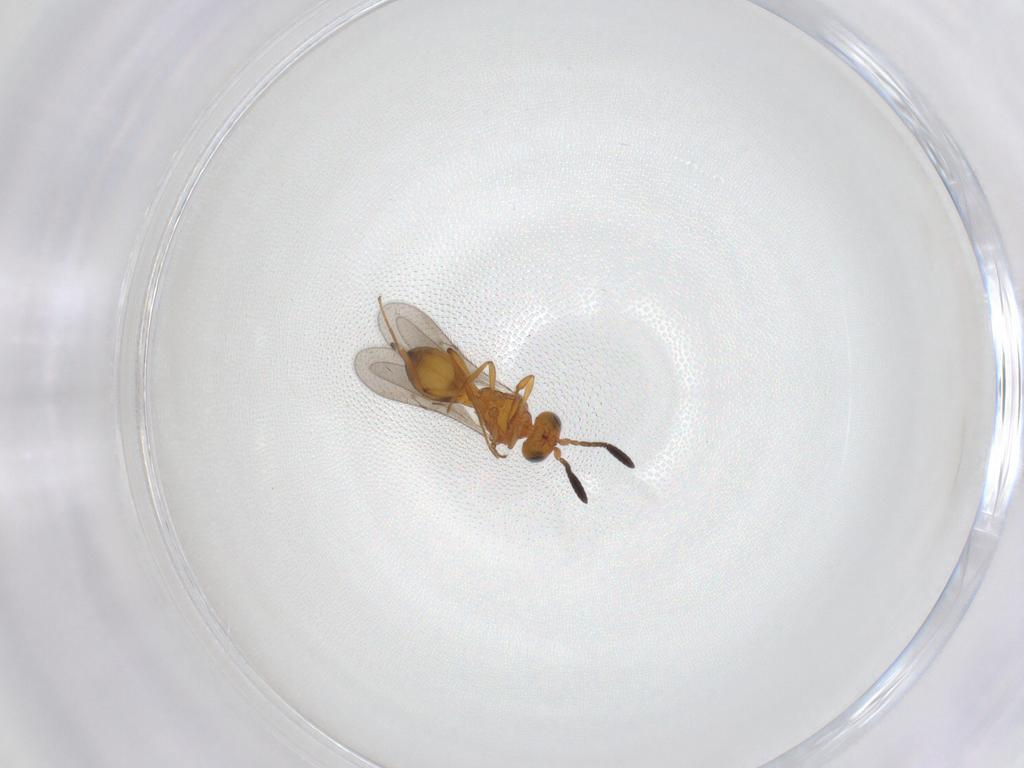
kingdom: Animalia
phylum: Arthropoda
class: Insecta
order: Hymenoptera
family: Scelionidae
